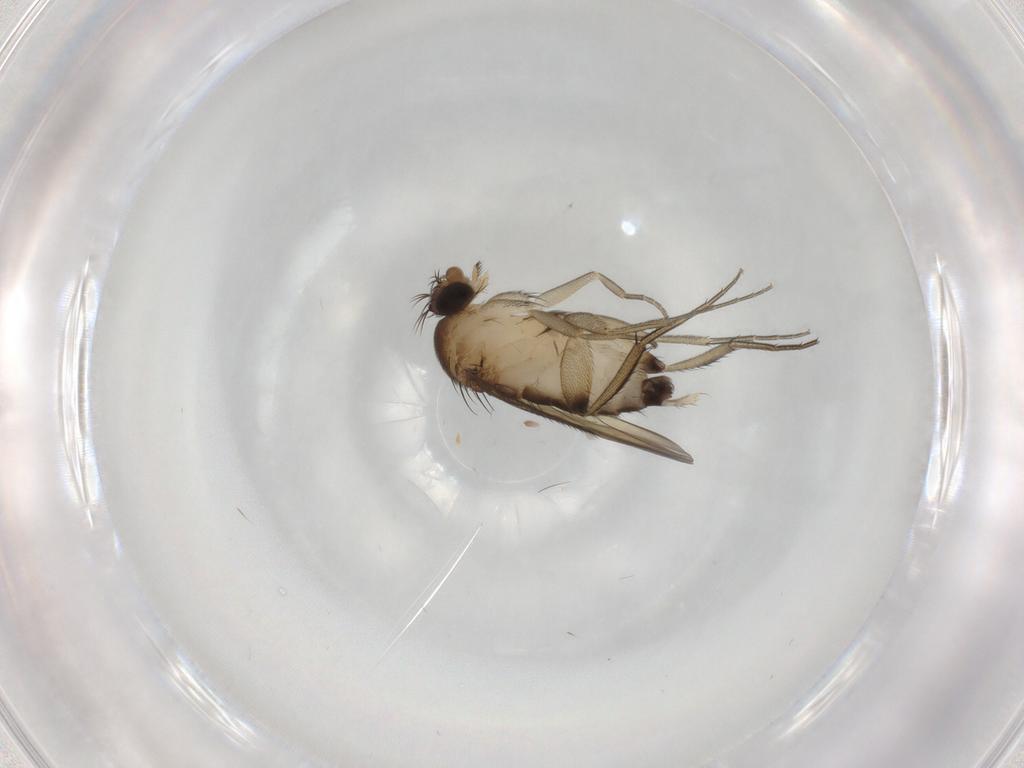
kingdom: Animalia
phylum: Arthropoda
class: Insecta
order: Diptera
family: Phoridae
